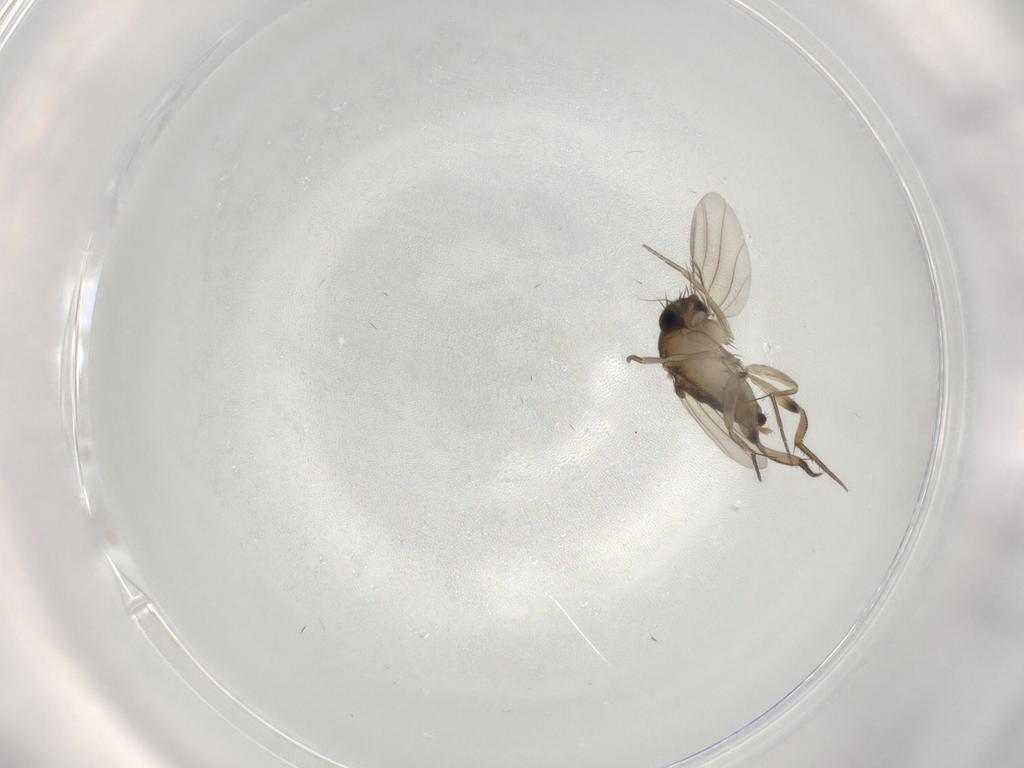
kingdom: Animalia
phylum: Arthropoda
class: Insecta
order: Diptera
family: Phoridae
